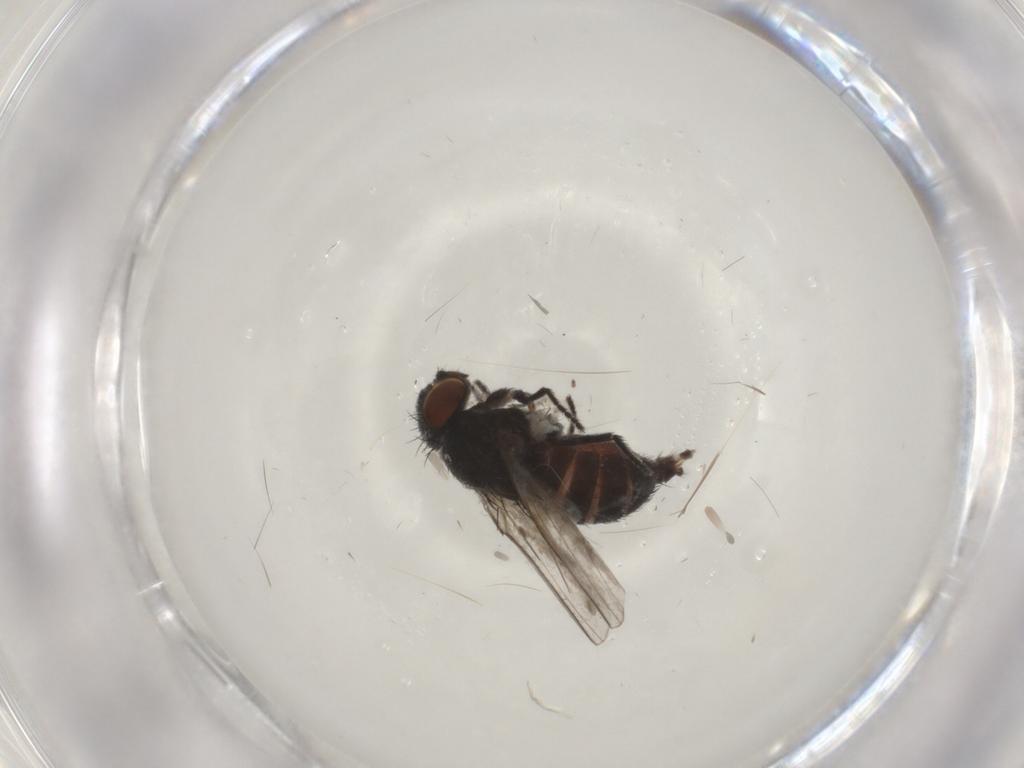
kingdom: Animalia
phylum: Arthropoda
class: Insecta
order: Diptera
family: Milichiidae
